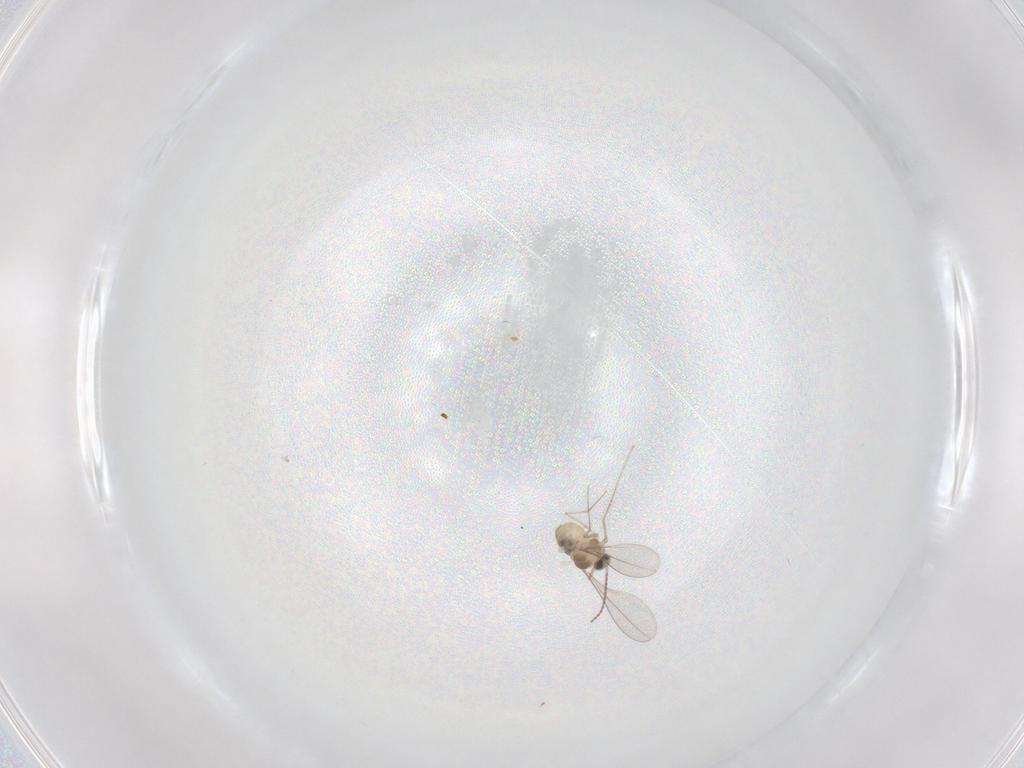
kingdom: Animalia
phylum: Arthropoda
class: Insecta
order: Diptera
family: Cecidomyiidae
